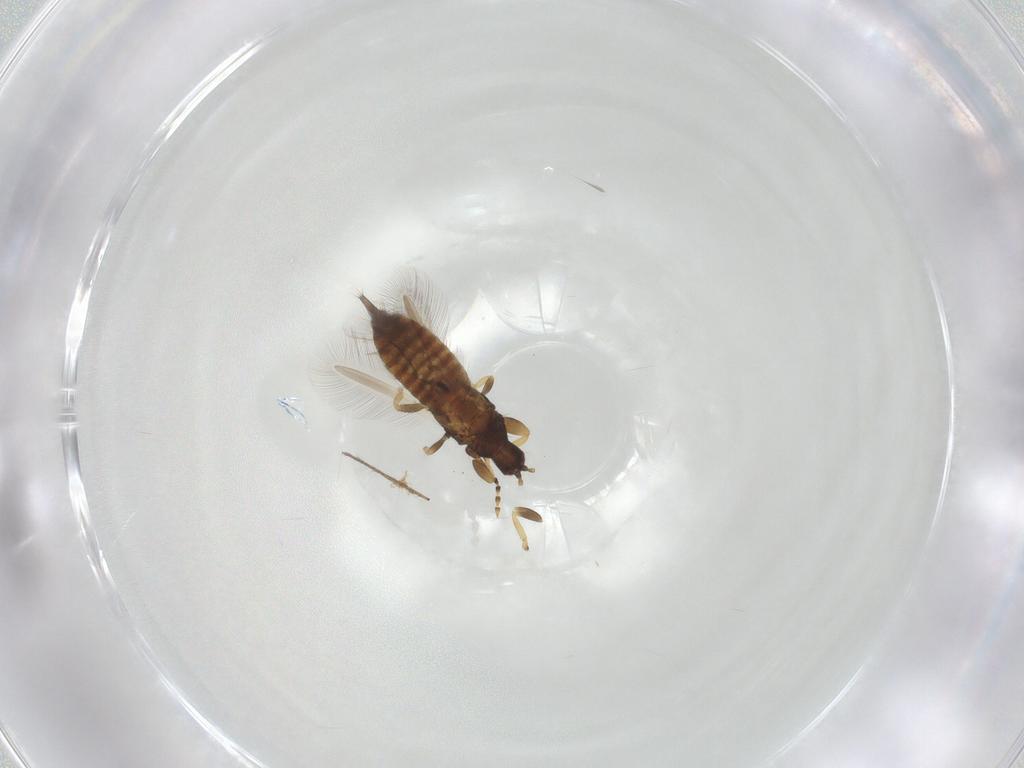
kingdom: Animalia
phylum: Arthropoda
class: Insecta
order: Thysanoptera
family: Phlaeothripidae
